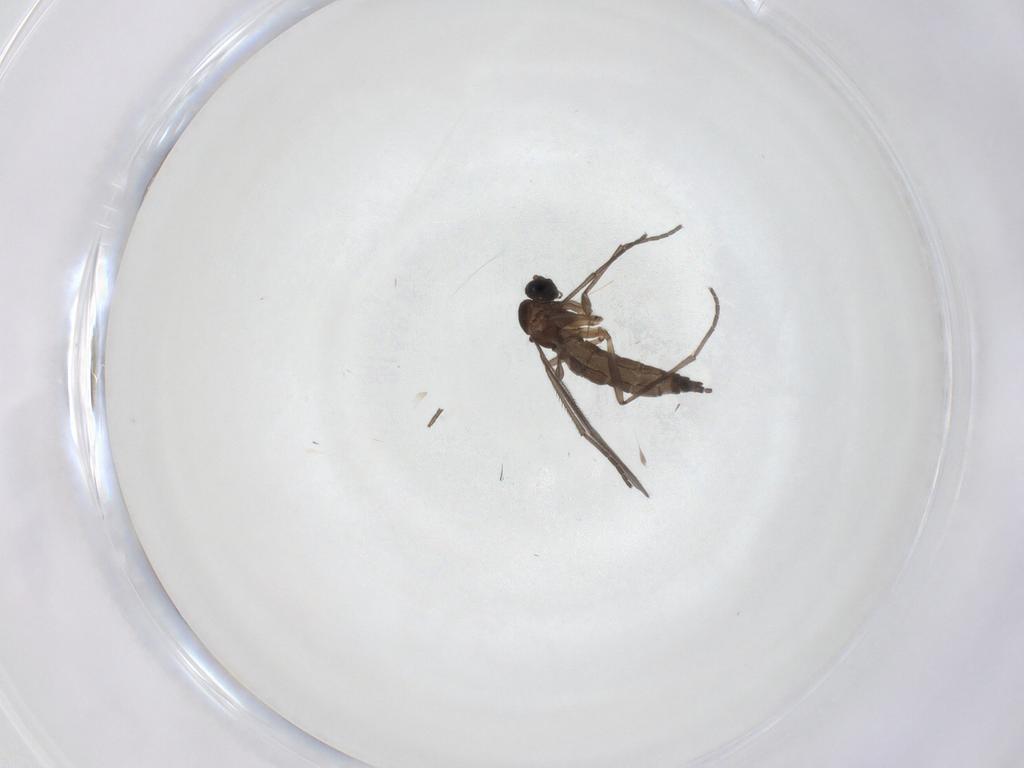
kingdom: Animalia
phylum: Arthropoda
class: Insecta
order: Diptera
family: Sciaridae
